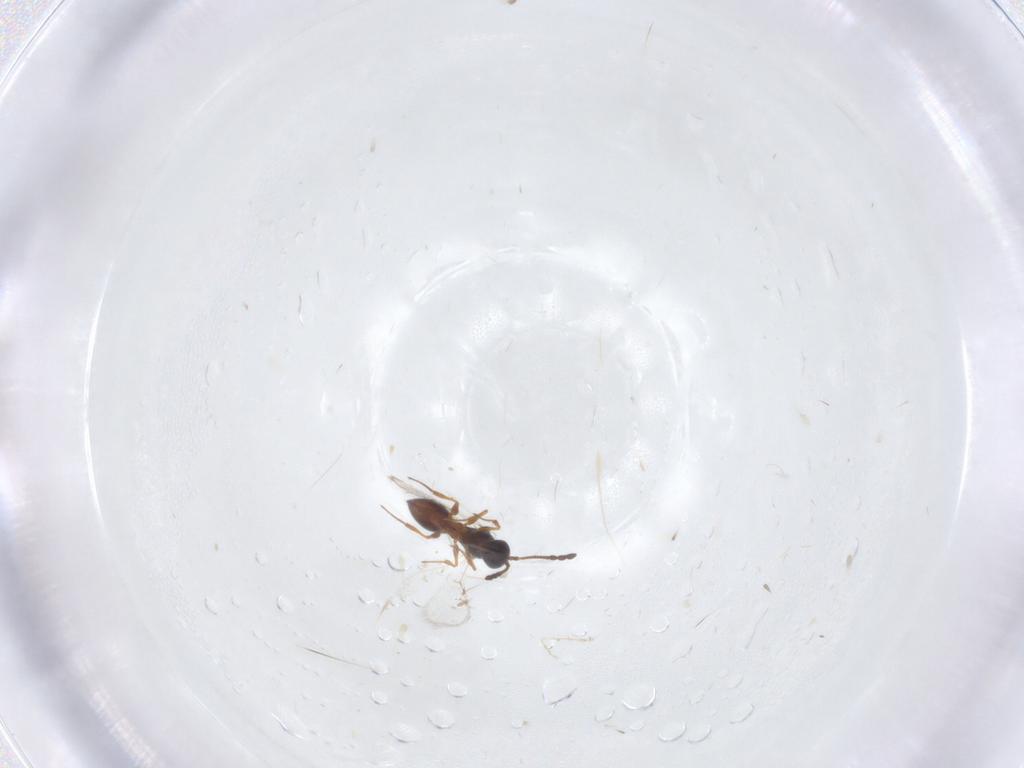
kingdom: Animalia
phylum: Arthropoda
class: Insecta
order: Hymenoptera
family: Figitidae
